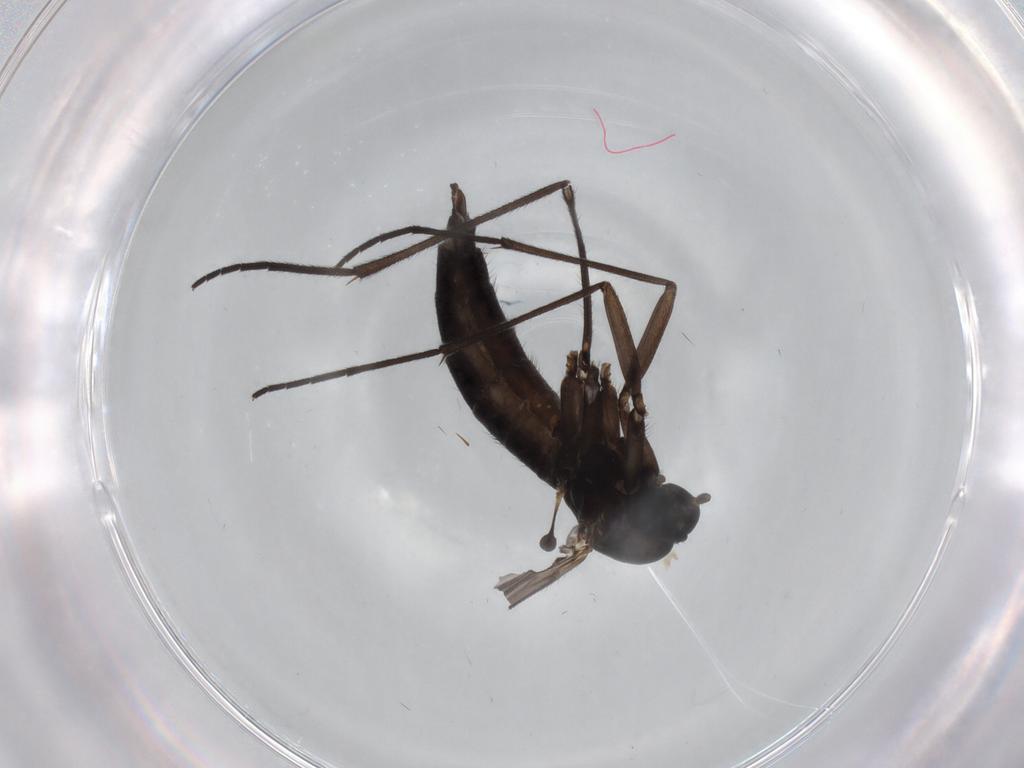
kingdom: Animalia
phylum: Arthropoda
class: Insecta
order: Diptera
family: Sciaridae
